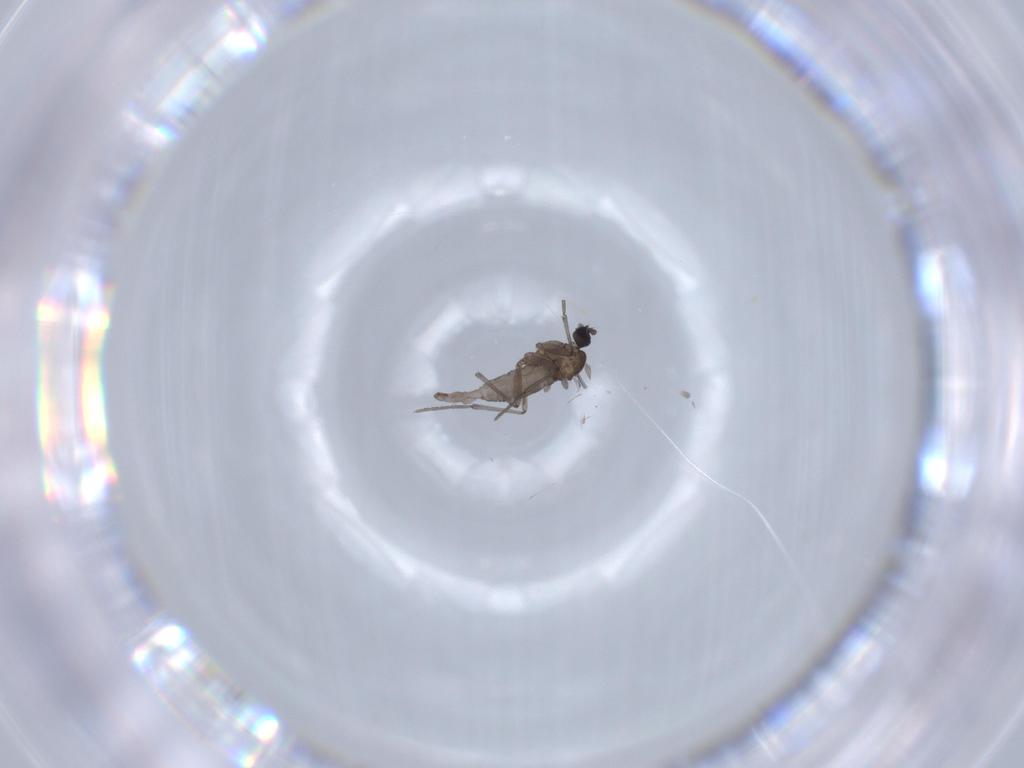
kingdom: Animalia
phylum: Arthropoda
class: Insecta
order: Diptera
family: Sciaridae
